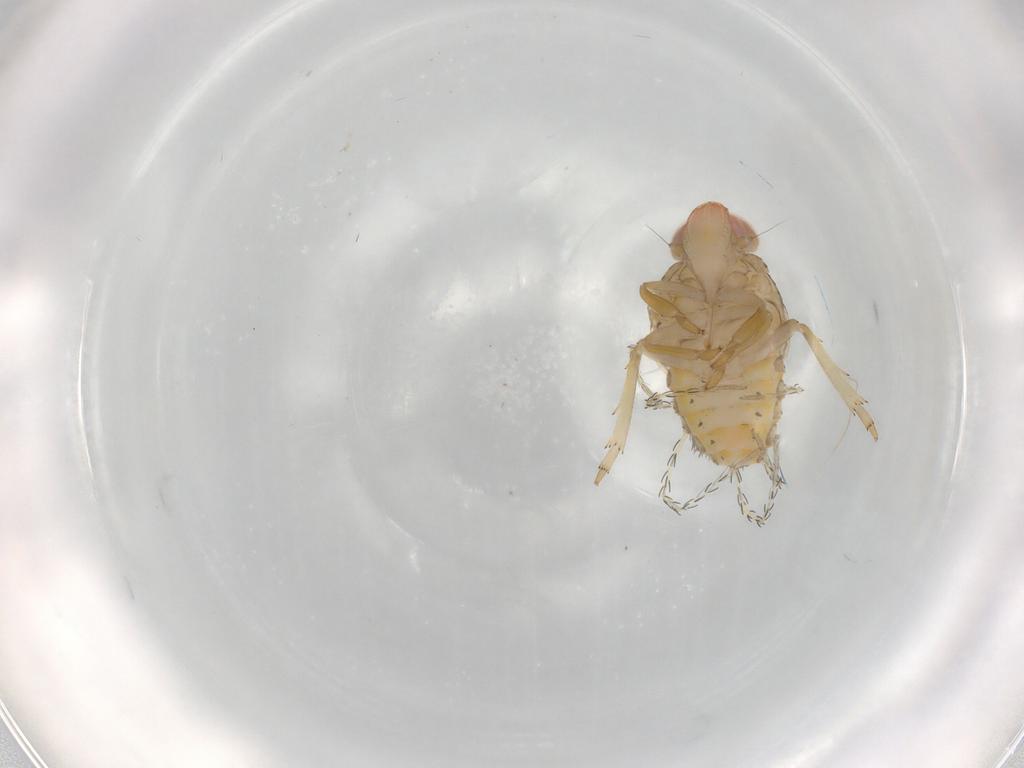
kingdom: Animalia
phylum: Arthropoda
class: Arachnida
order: Trombidiformes
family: Erythraeidae
